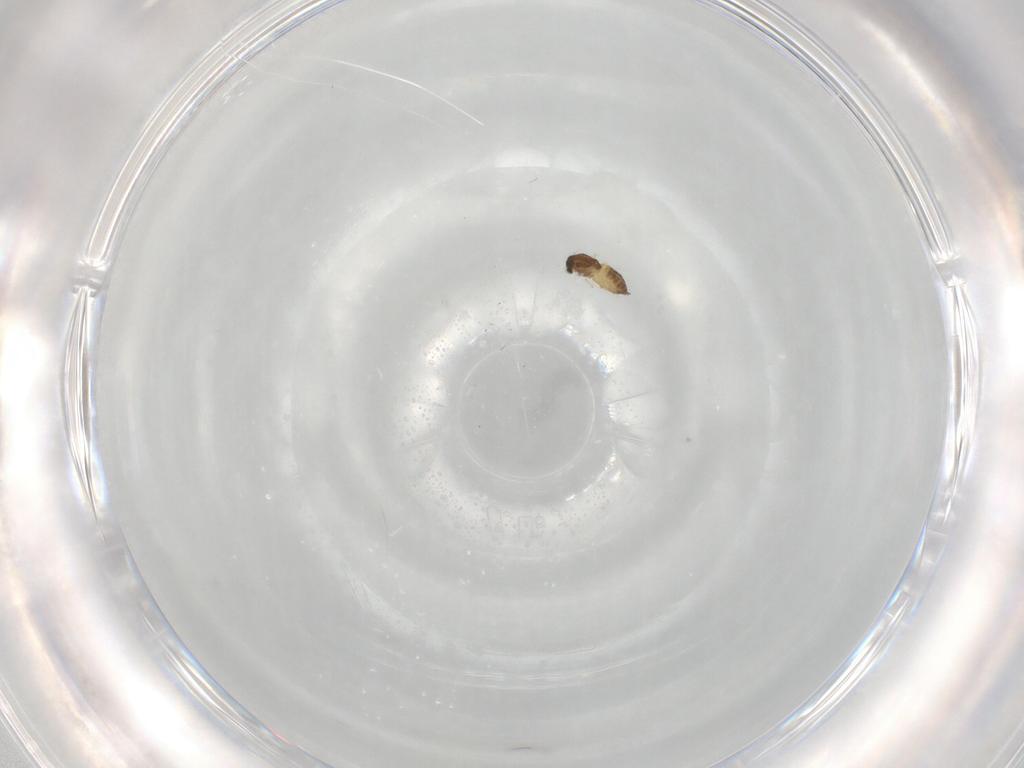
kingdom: Animalia
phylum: Arthropoda
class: Insecta
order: Diptera
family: Chironomidae
